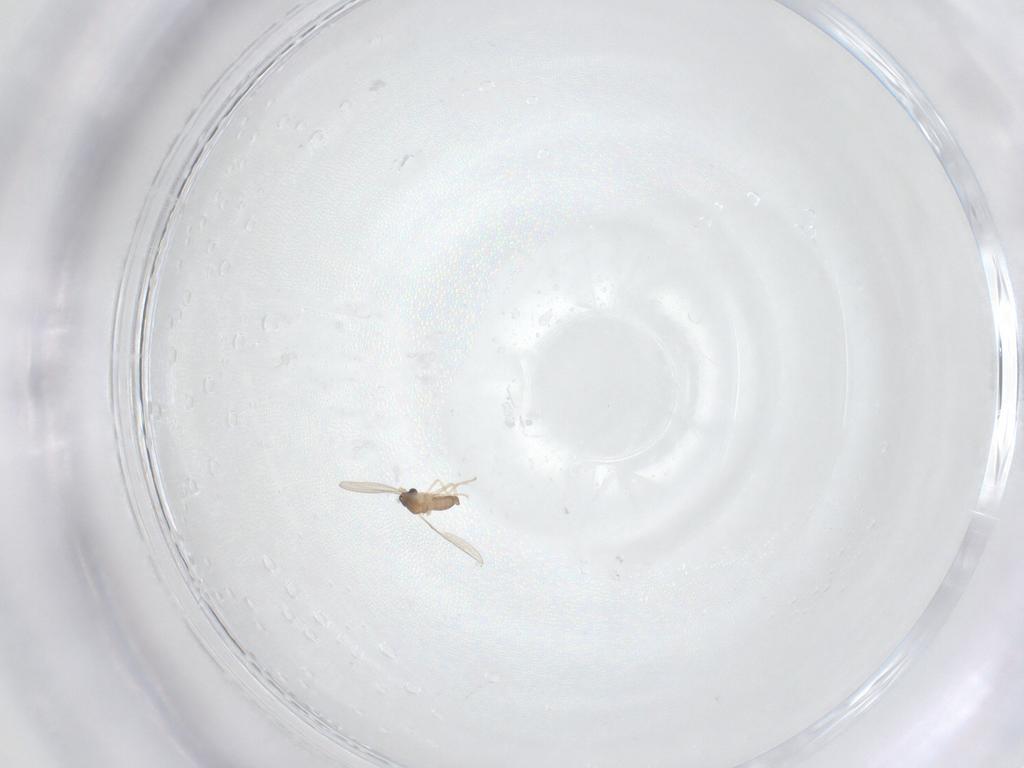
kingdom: Animalia
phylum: Arthropoda
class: Insecta
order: Diptera
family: Cecidomyiidae
